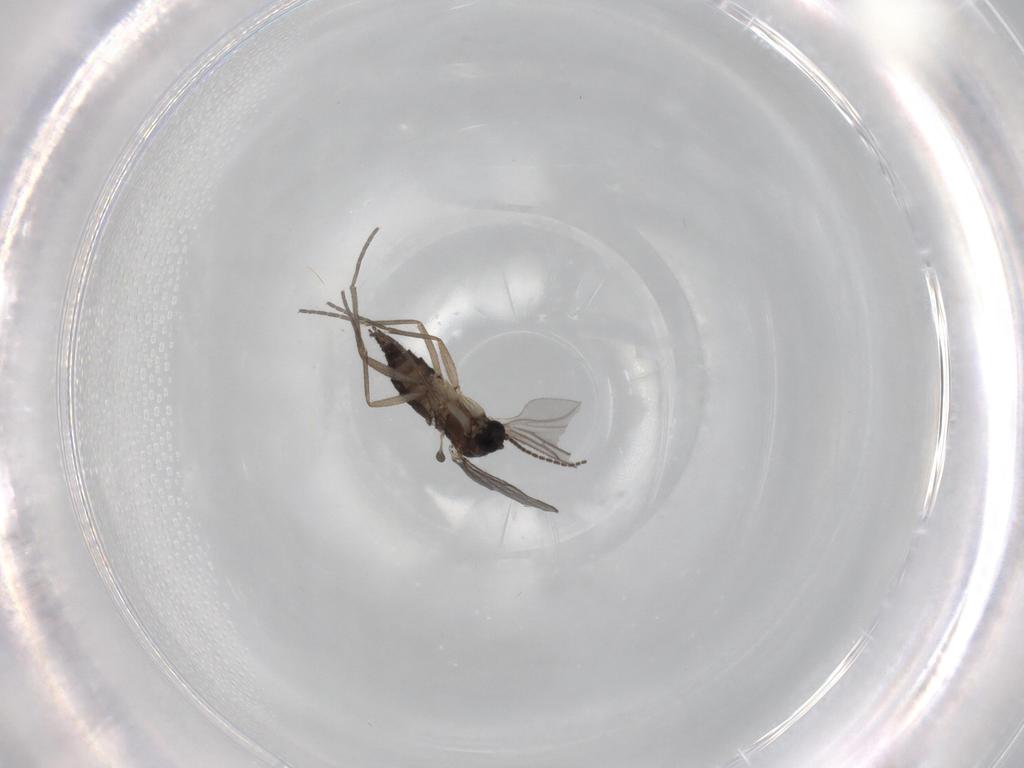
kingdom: Animalia
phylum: Arthropoda
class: Insecta
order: Diptera
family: Sciaridae
